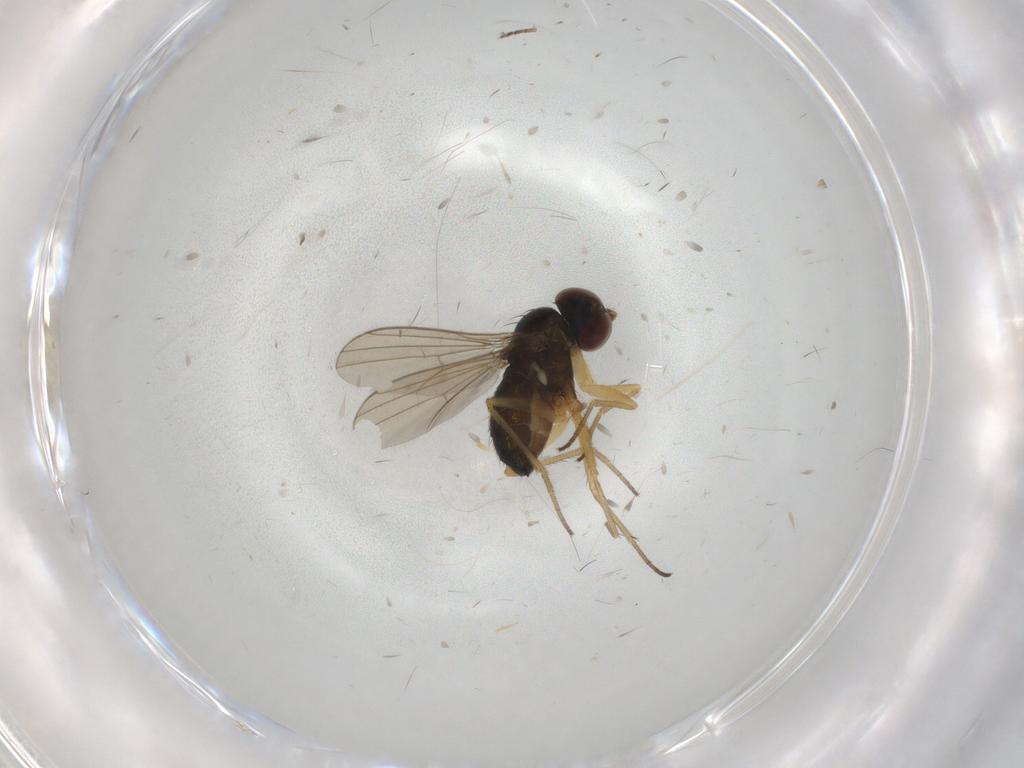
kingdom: Animalia
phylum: Arthropoda
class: Insecta
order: Diptera
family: Dolichopodidae
